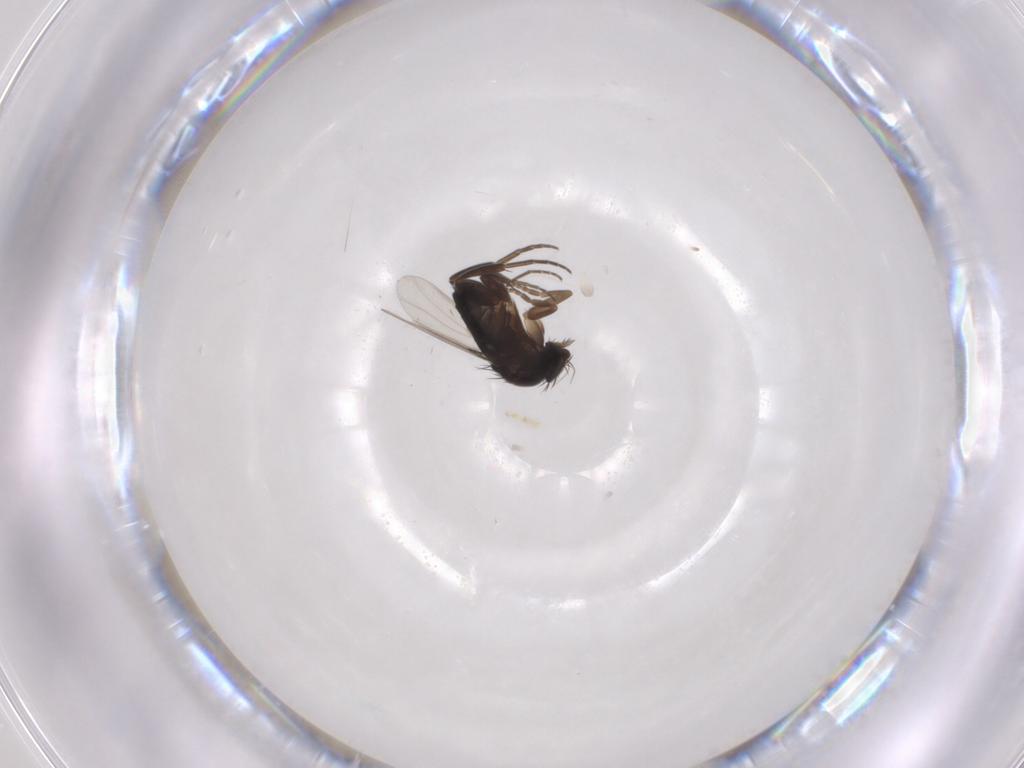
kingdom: Animalia
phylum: Arthropoda
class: Insecta
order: Diptera
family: Phoridae
